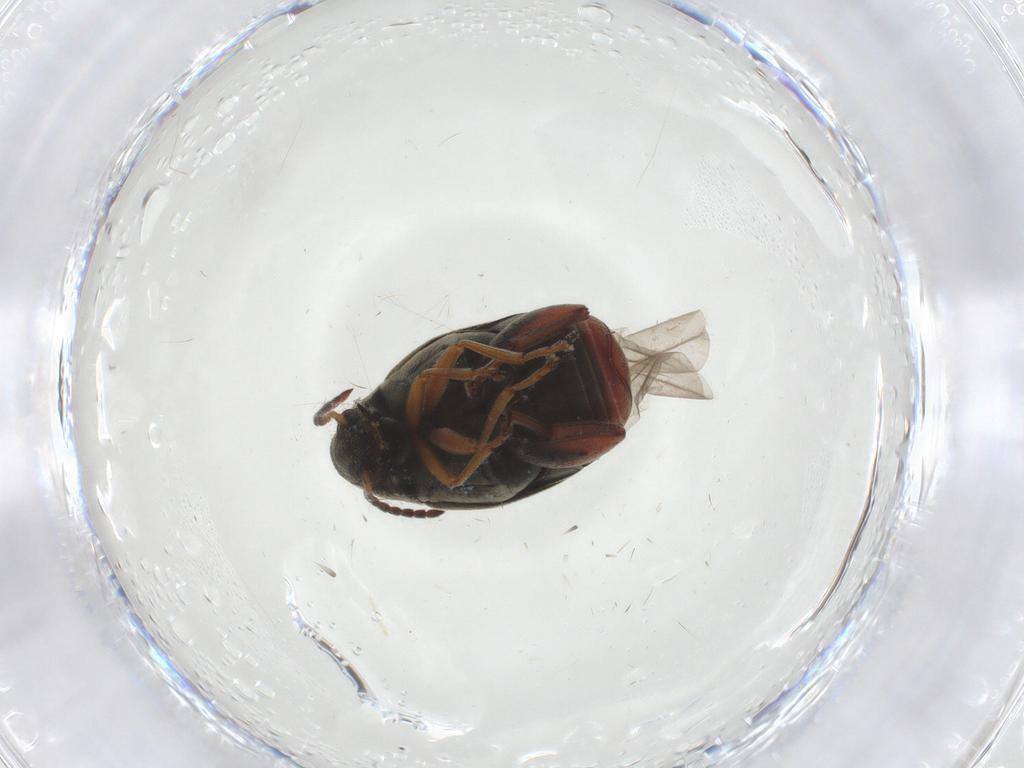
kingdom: Animalia
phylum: Arthropoda
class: Insecta
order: Coleoptera
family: Chrysomelidae
